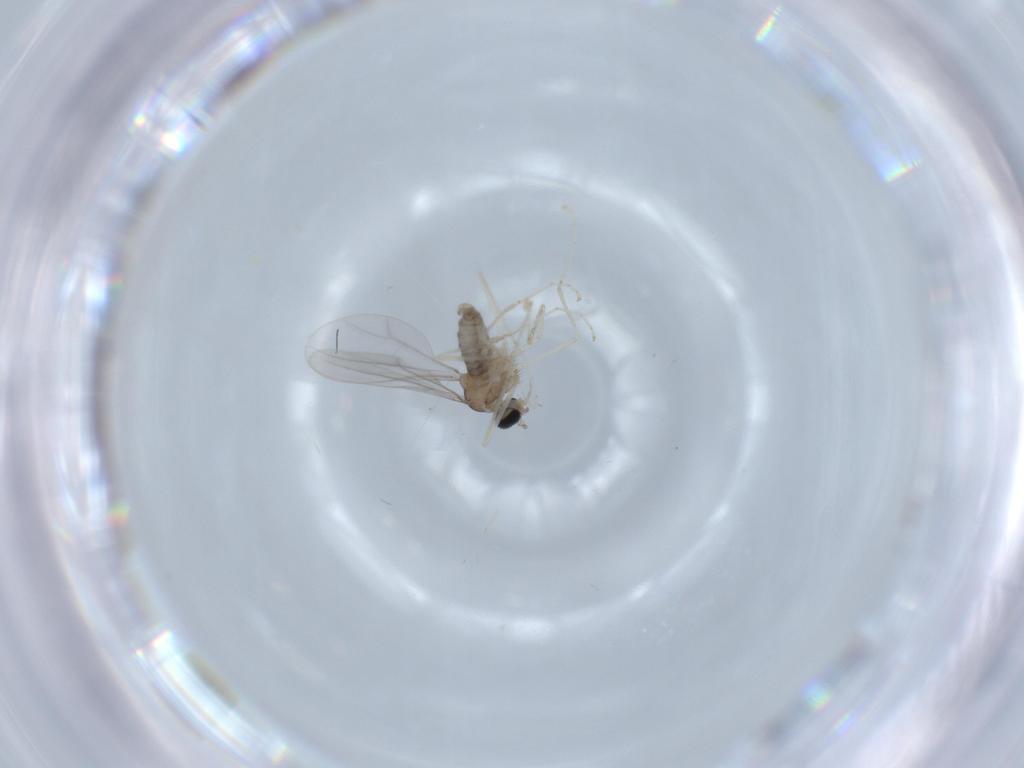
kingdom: Animalia
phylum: Arthropoda
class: Insecta
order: Diptera
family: Cecidomyiidae
